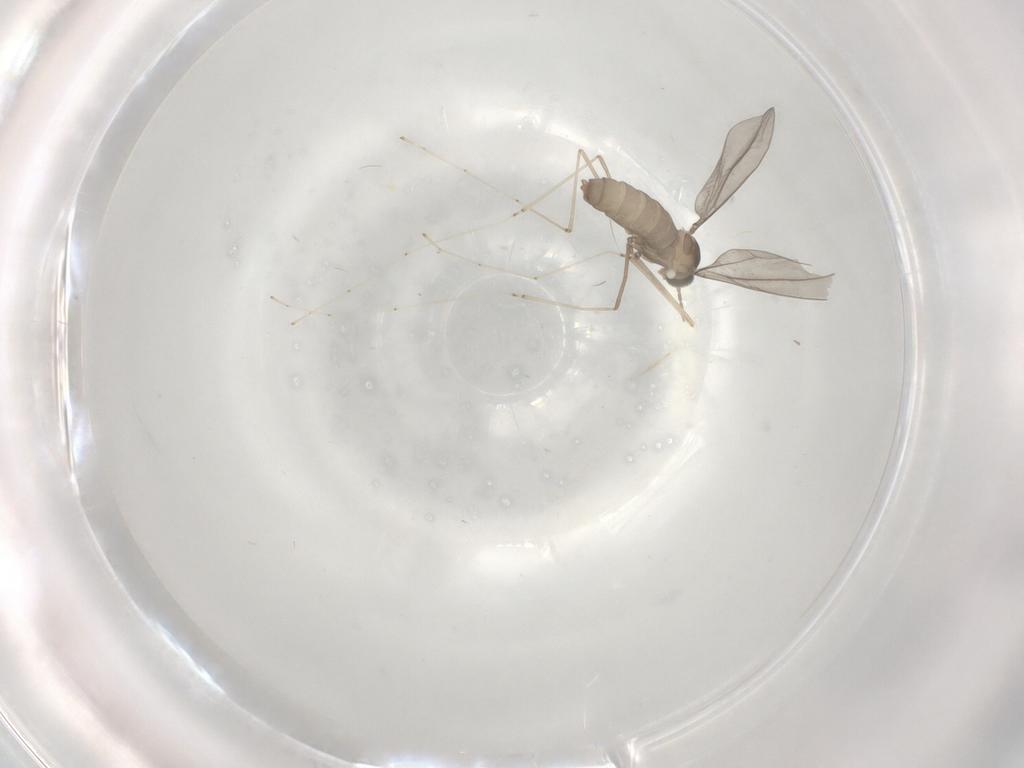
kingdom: Animalia
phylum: Arthropoda
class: Insecta
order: Diptera
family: Cecidomyiidae
